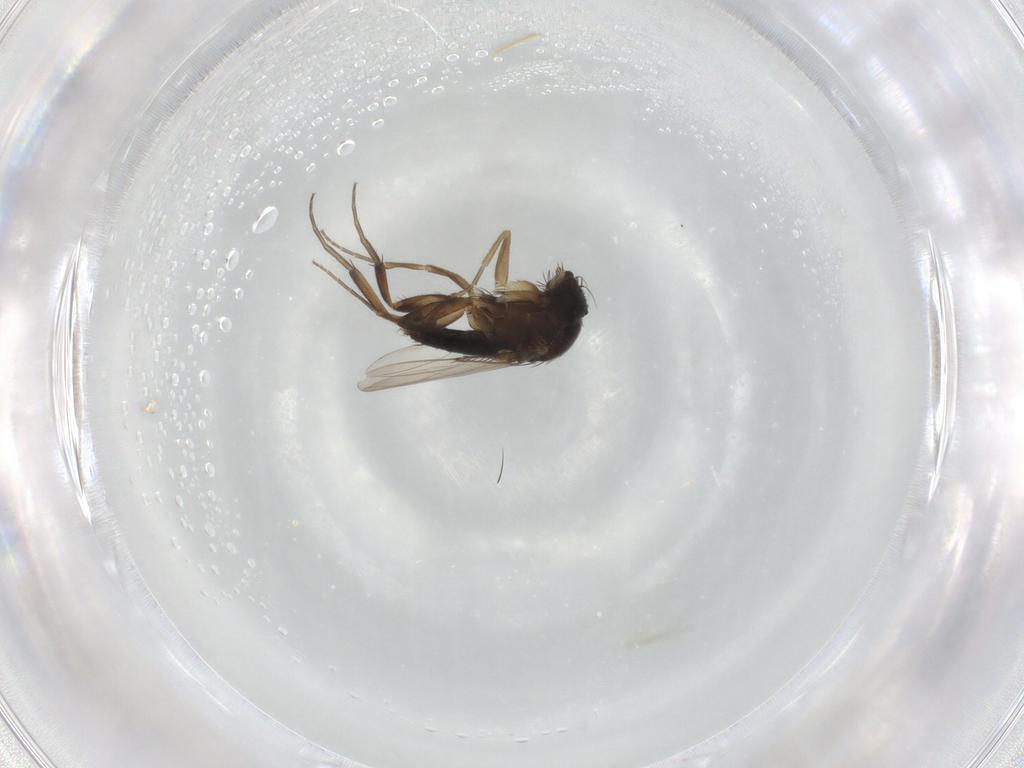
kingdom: Animalia
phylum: Arthropoda
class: Insecta
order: Diptera
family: Phoridae
